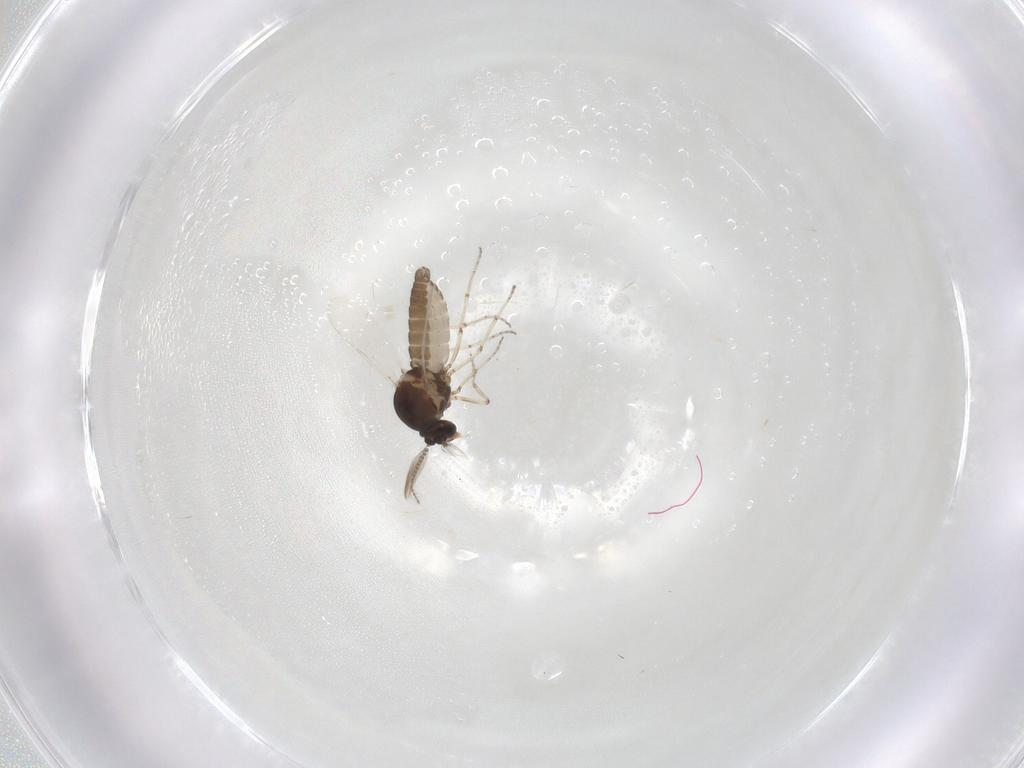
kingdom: Animalia
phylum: Arthropoda
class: Insecta
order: Diptera
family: Ceratopogonidae
